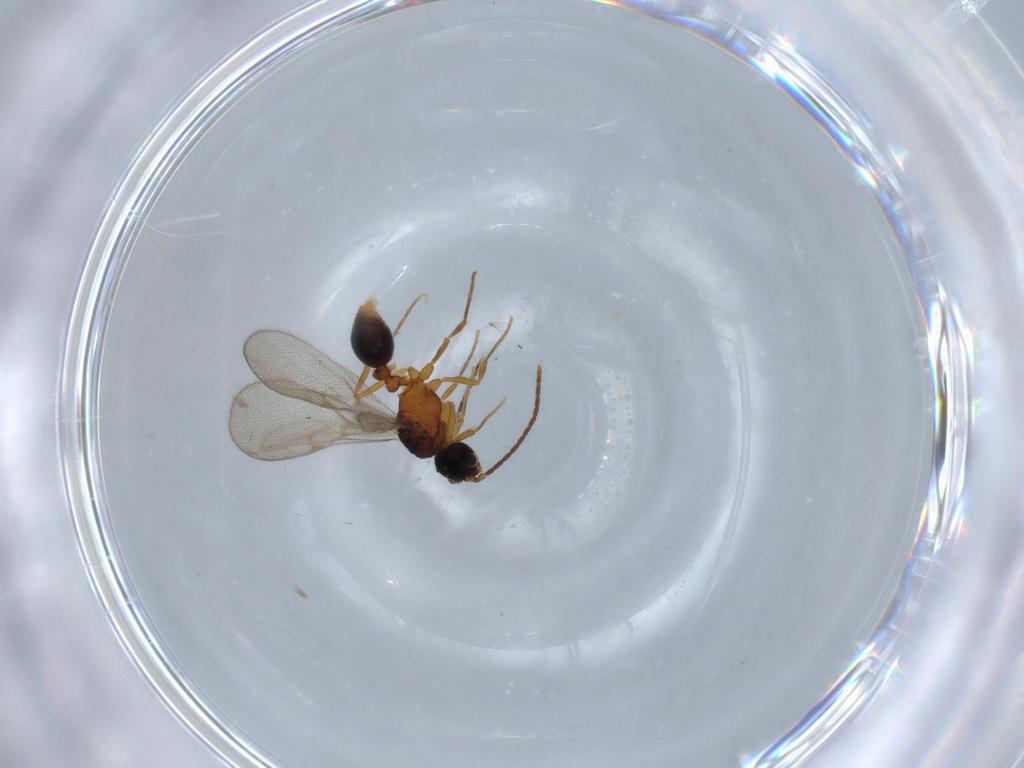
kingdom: Animalia
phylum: Arthropoda
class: Insecta
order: Hymenoptera
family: Formicidae
